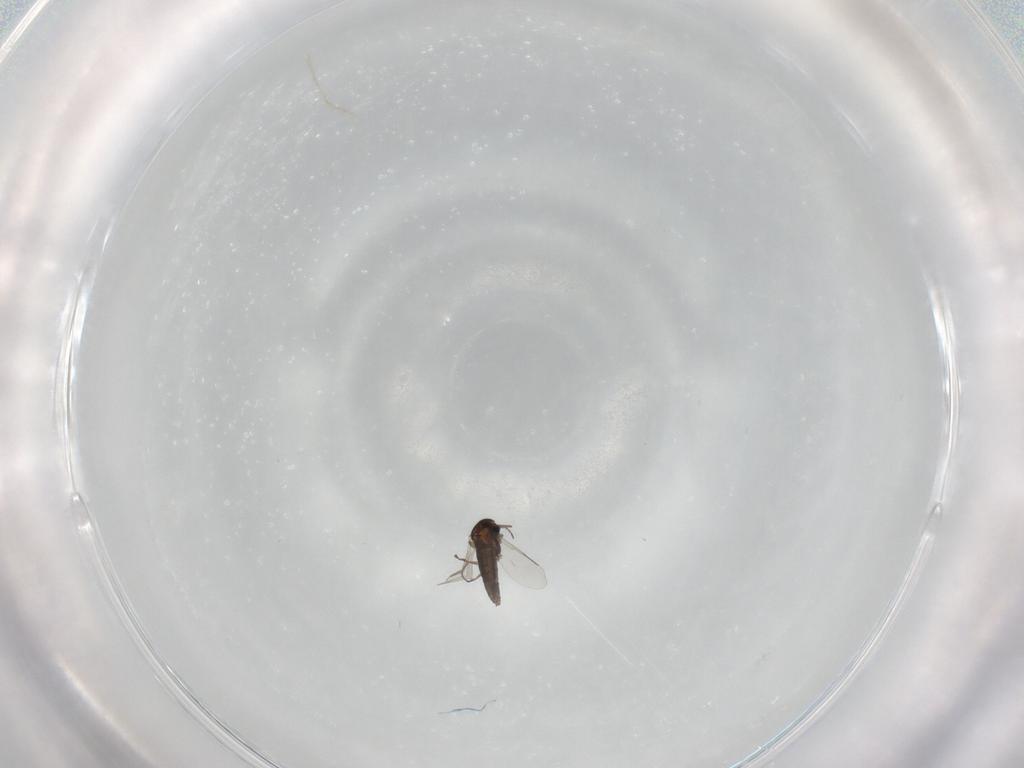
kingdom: Animalia
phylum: Arthropoda
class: Insecta
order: Diptera
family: Chironomidae
